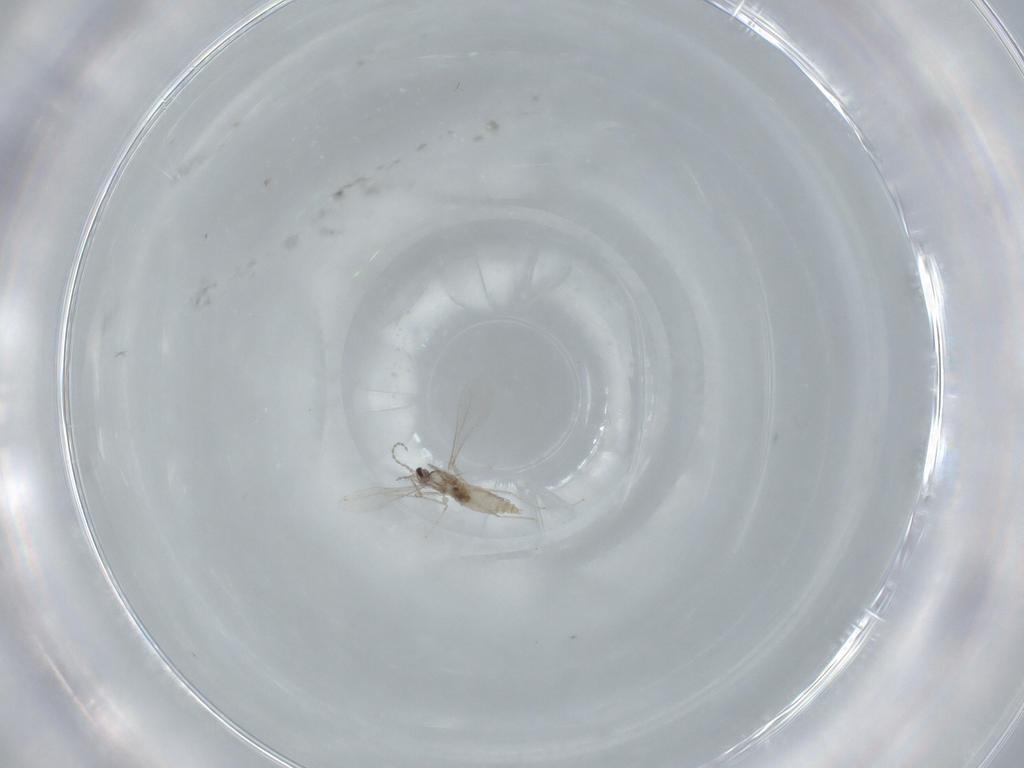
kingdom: Animalia
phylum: Arthropoda
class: Insecta
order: Diptera
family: Cecidomyiidae
